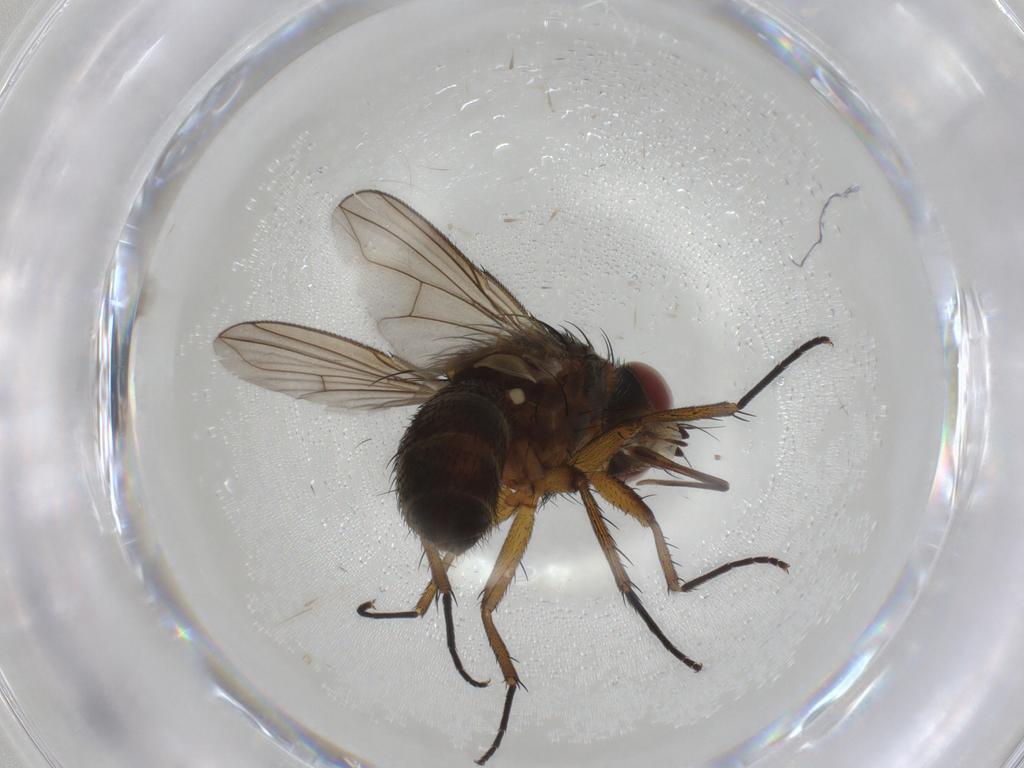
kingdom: Animalia
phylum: Arthropoda
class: Insecta
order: Diptera
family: Tachinidae
